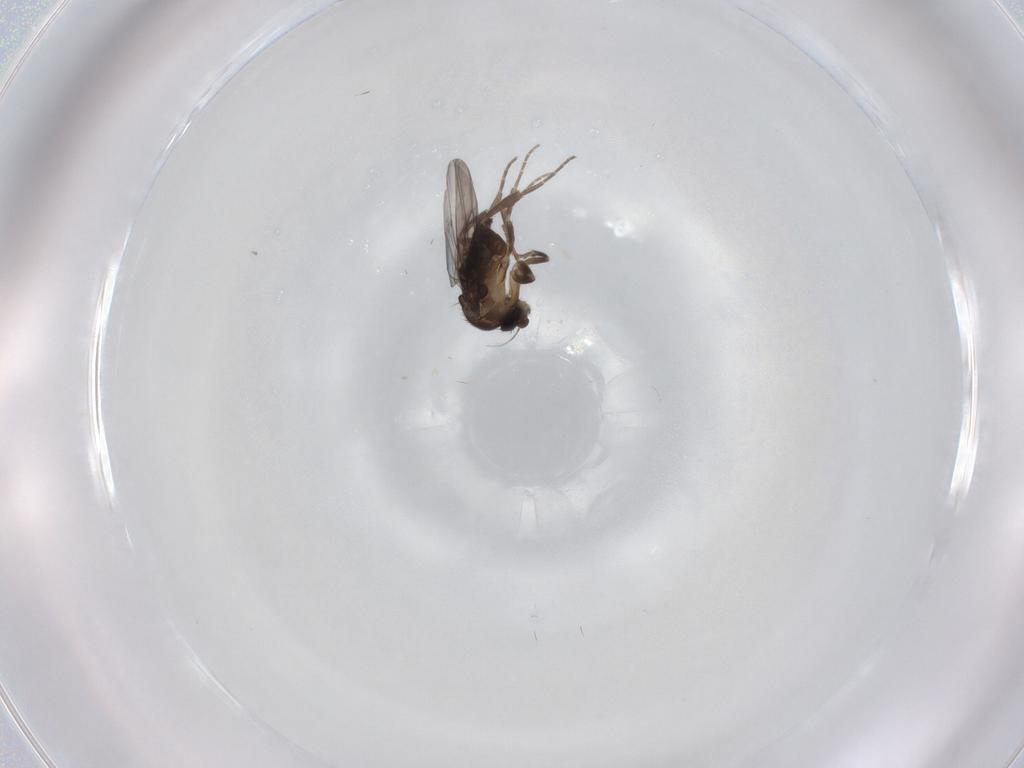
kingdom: Animalia
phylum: Arthropoda
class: Insecta
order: Diptera
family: Phoridae
